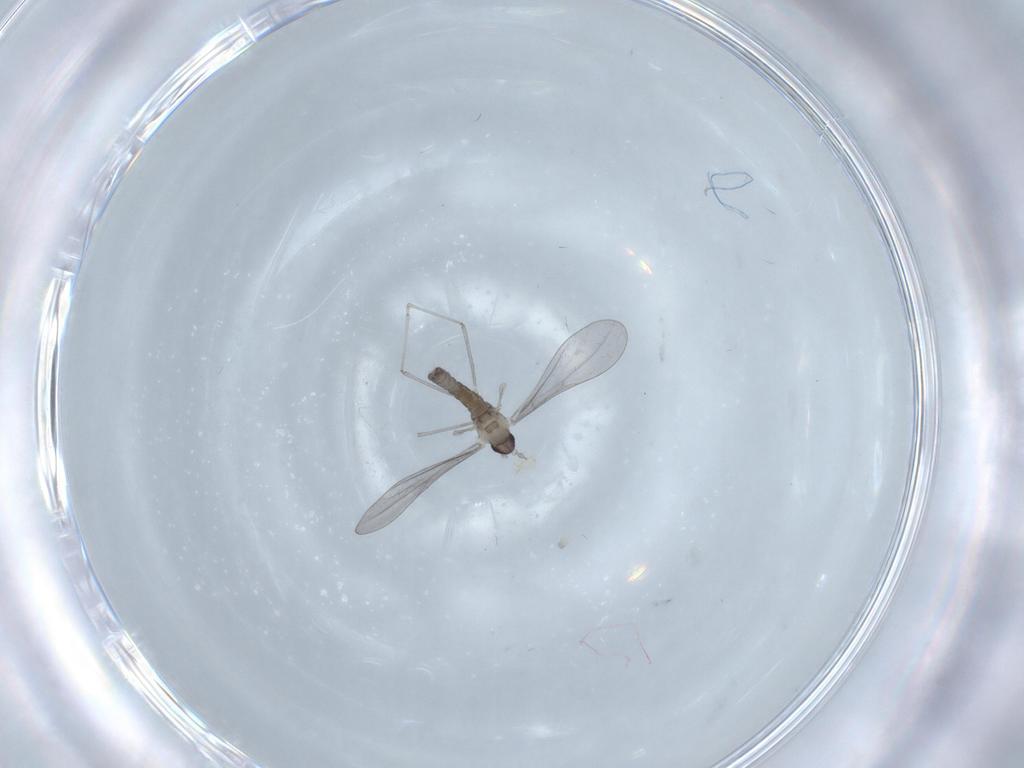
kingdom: Animalia
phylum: Arthropoda
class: Insecta
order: Diptera
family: Cecidomyiidae
